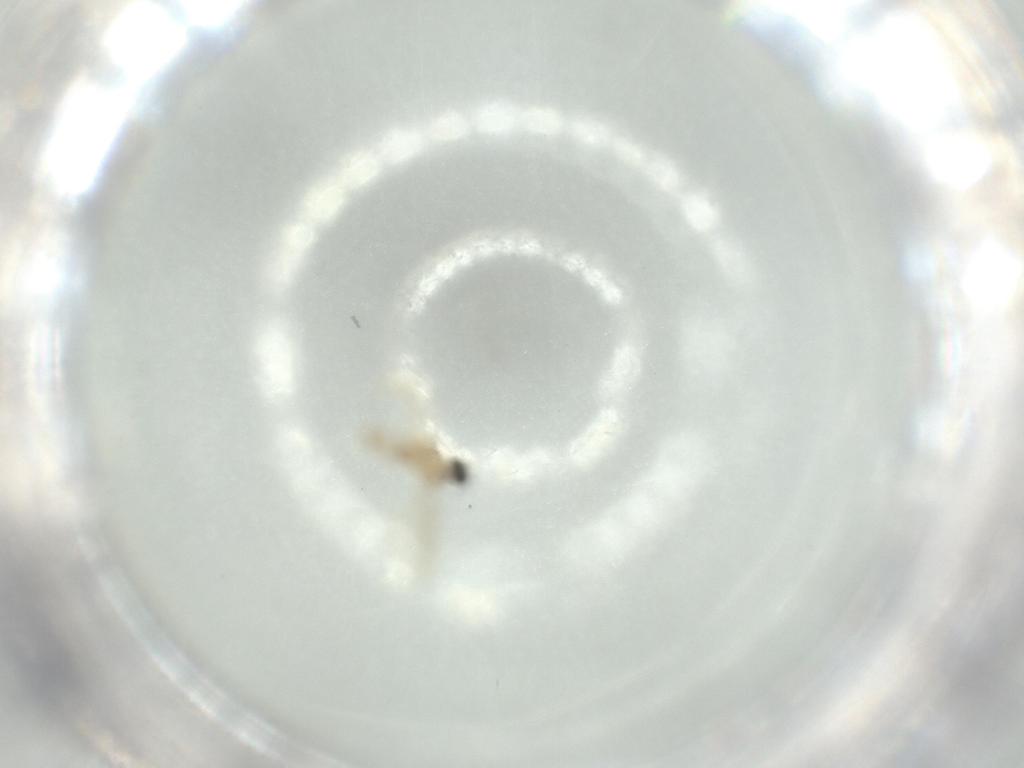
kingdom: Animalia
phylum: Arthropoda
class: Insecta
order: Diptera
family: Cecidomyiidae
